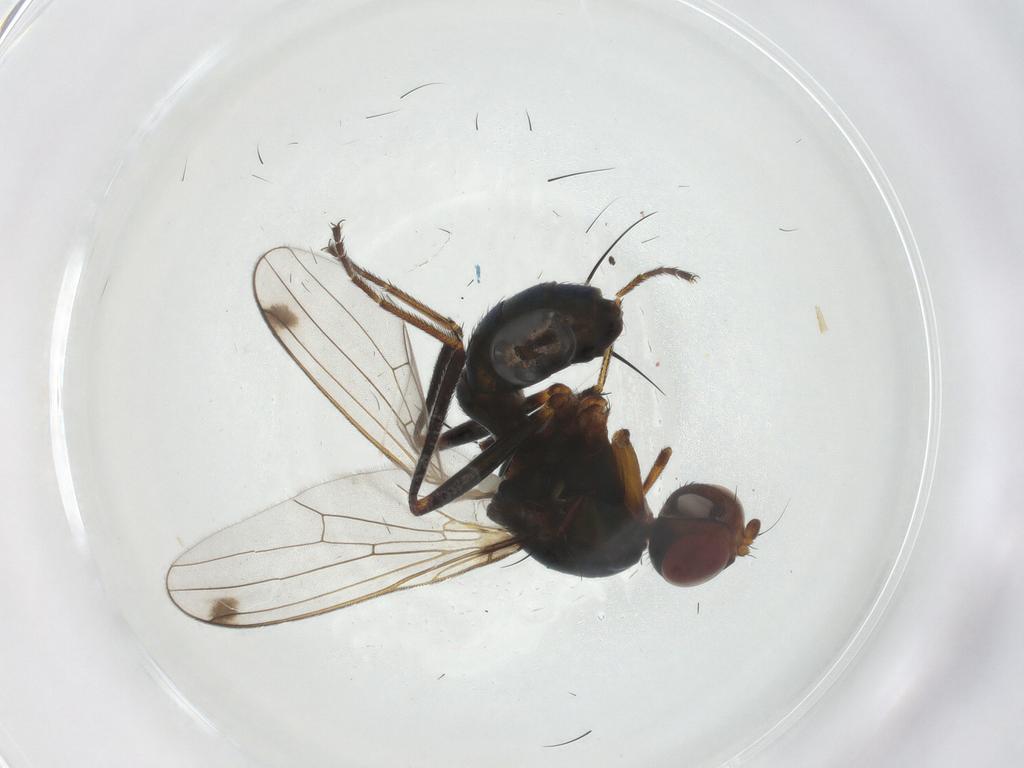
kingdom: Animalia
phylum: Arthropoda
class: Insecta
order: Diptera
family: Sepsidae
